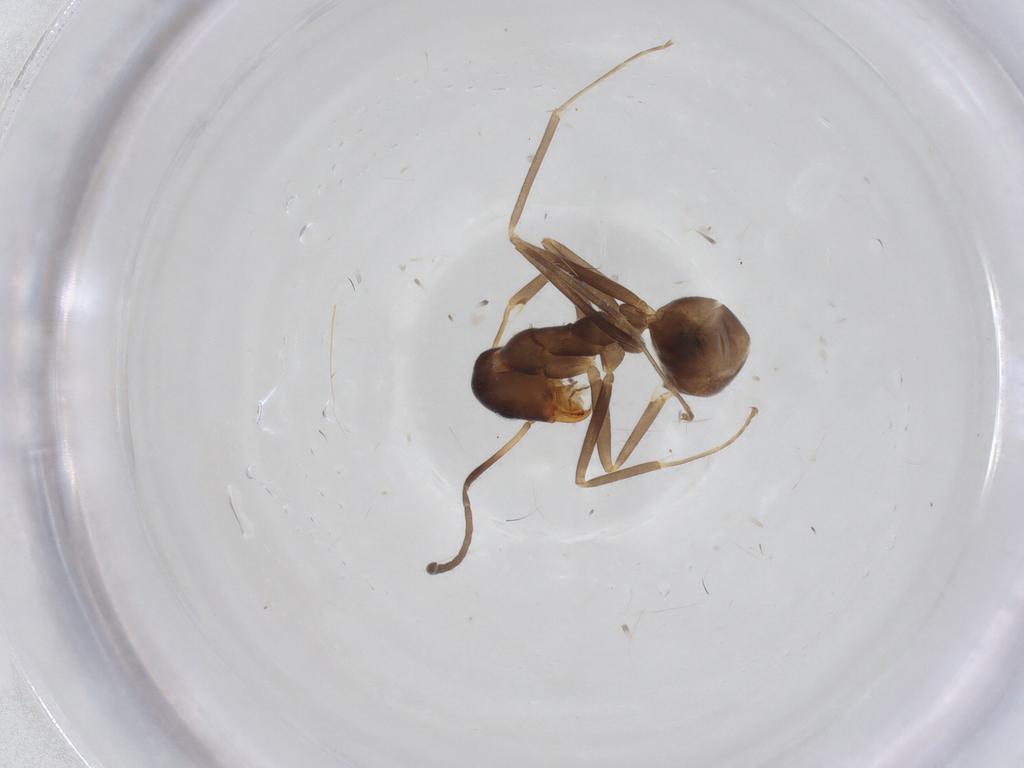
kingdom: Animalia
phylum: Arthropoda
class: Insecta
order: Hymenoptera
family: Formicidae
